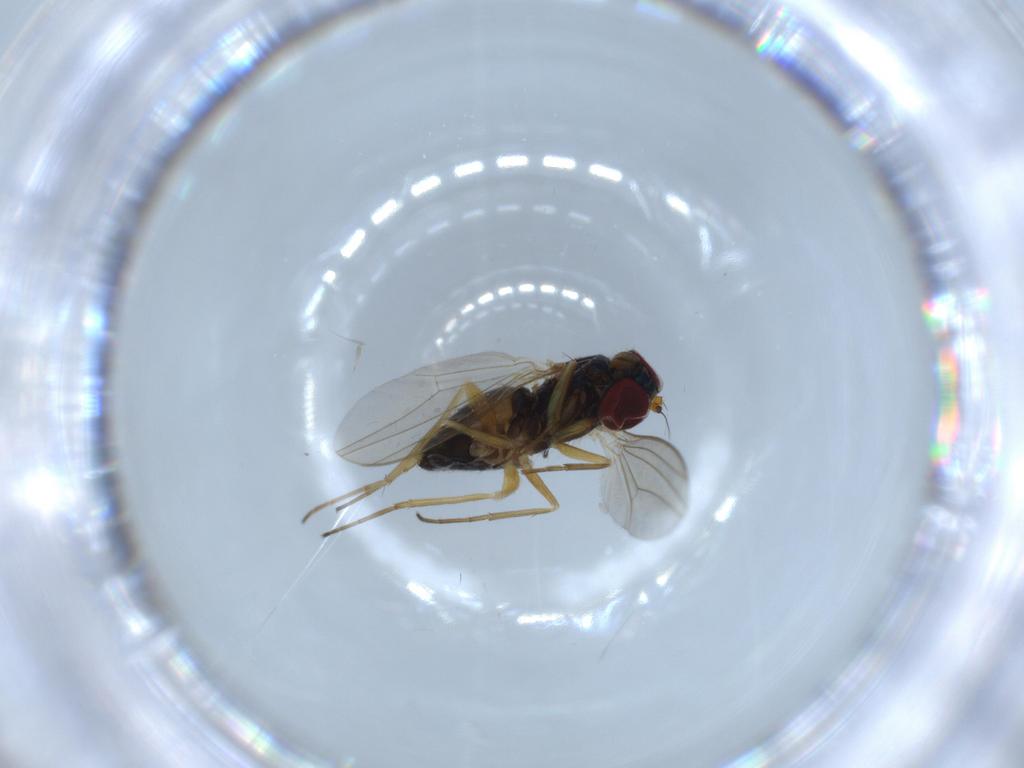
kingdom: Animalia
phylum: Arthropoda
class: Insecta
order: Diptera
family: Dolichopodidae
